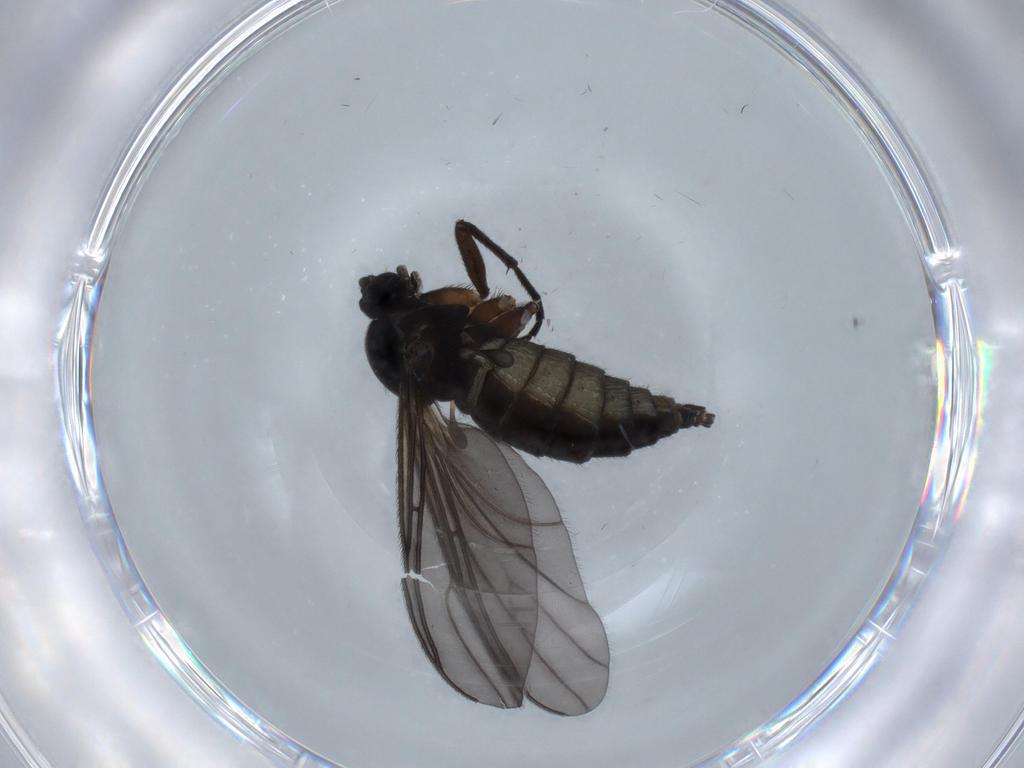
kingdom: Animalia
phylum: Arthropoda
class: Insecta
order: Diptera
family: Sciaridae
